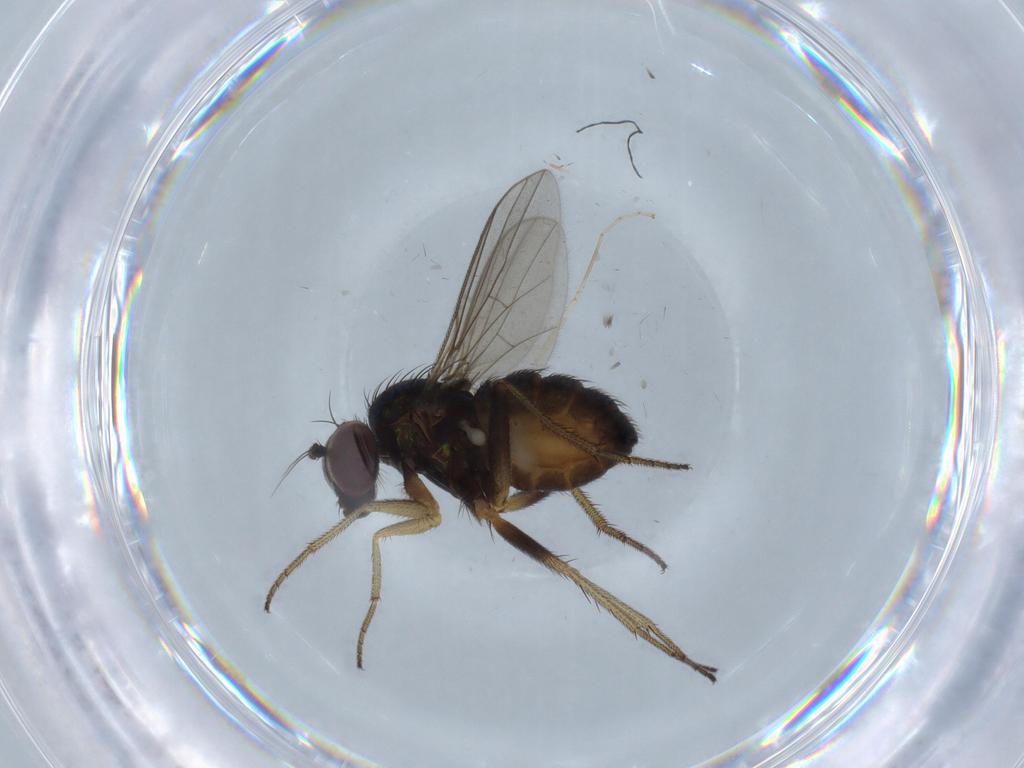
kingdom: Animalia
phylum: Arthropoda
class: Insecta
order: Diptera
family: Cecidomyiidae
